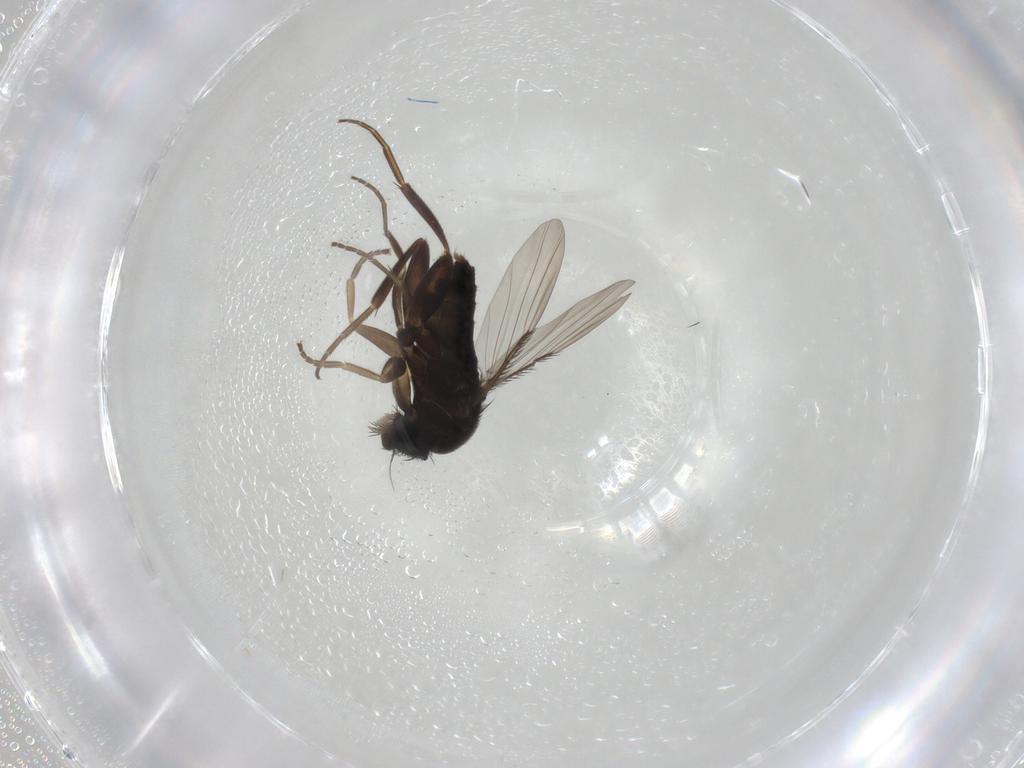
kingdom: Animalia
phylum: Arthropoda
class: Insecta
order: Diptera
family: Phoridae
